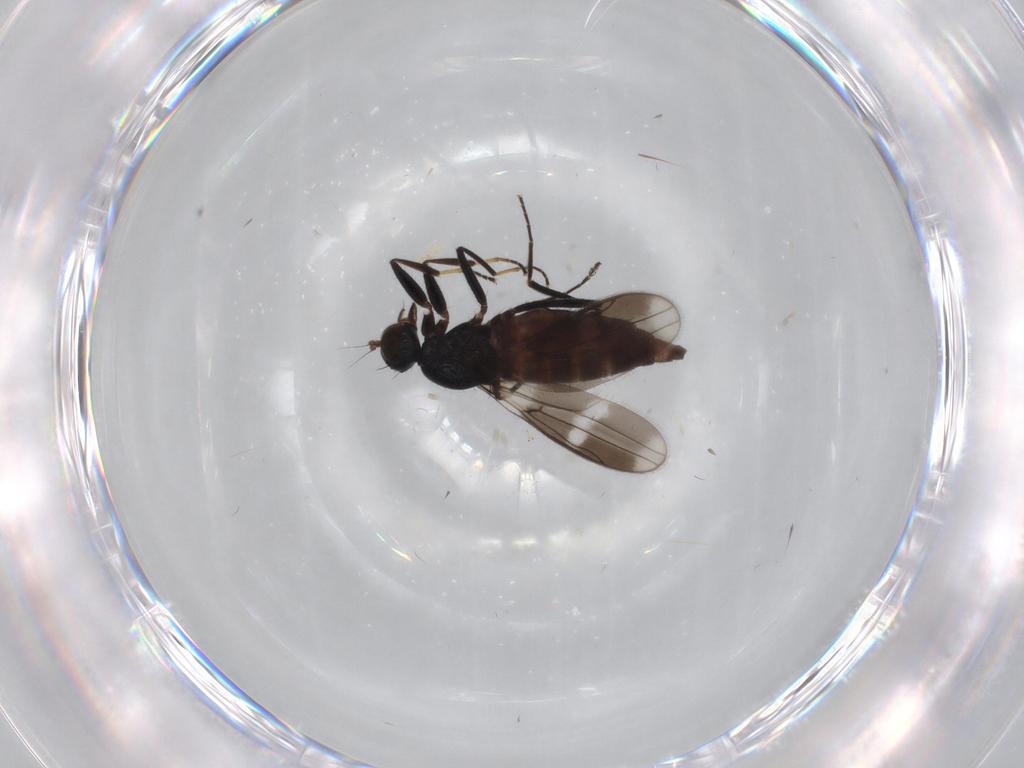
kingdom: Animalia
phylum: Arthropoda
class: Insecta
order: Diptera
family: Hybotidae
